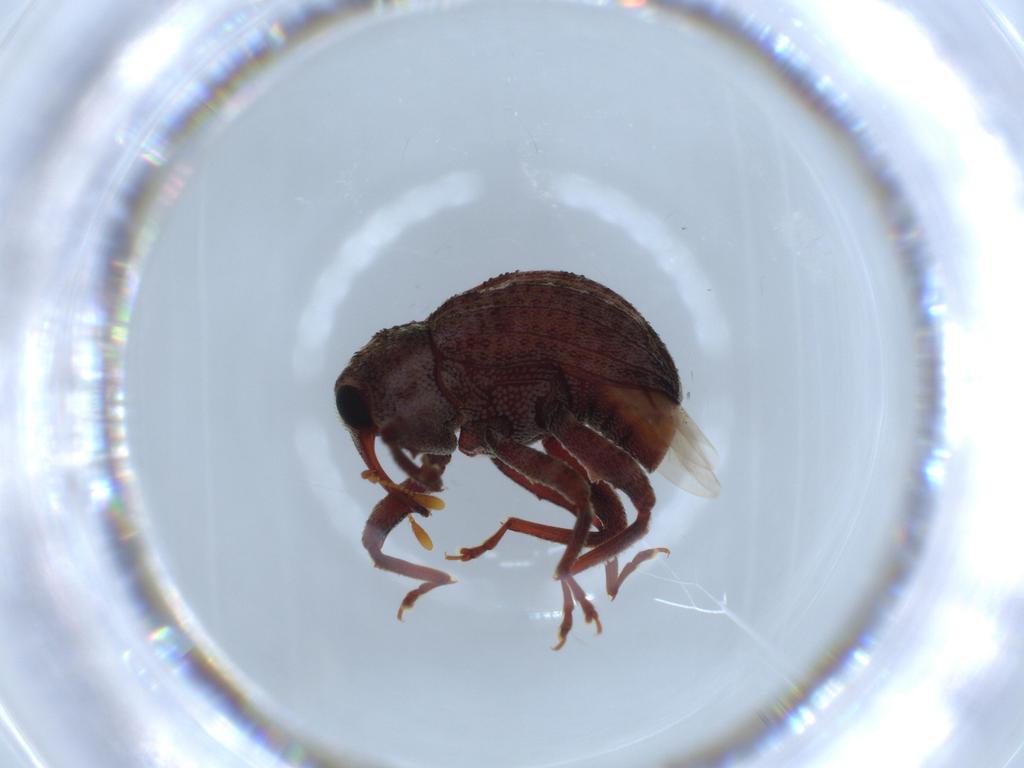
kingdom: Animalia
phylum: Arthropoda
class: Insecta
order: Coleoptera
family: Curculionidae
